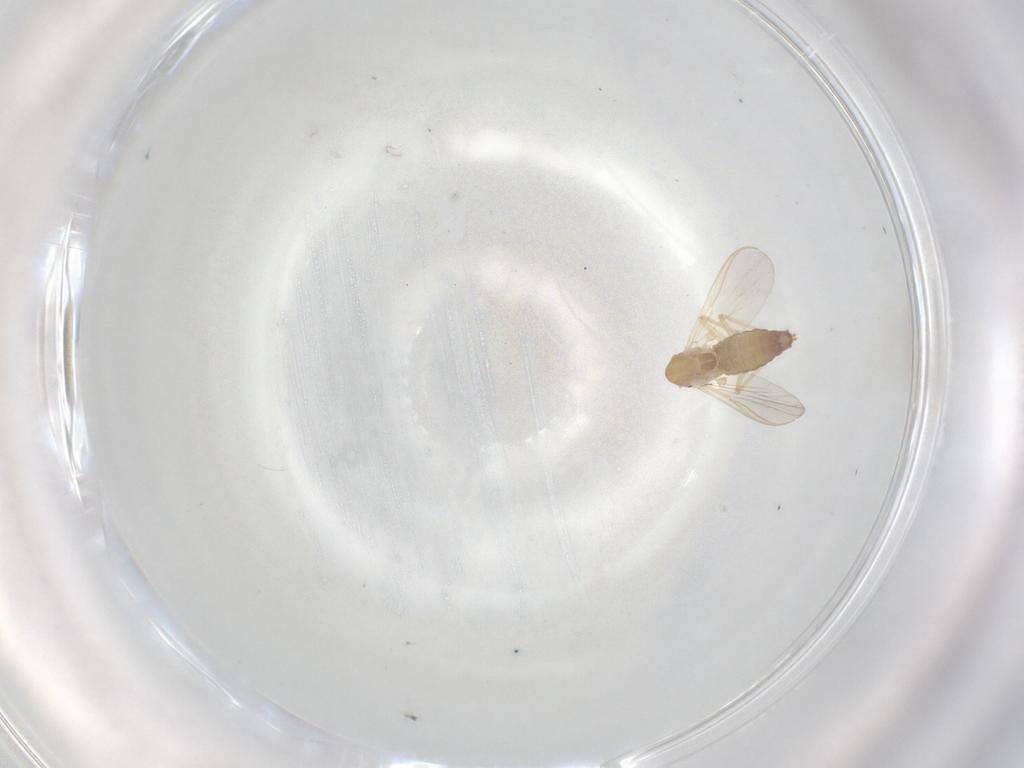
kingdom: Animalia
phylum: Arthropoda
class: Insecta
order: Diptera
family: Chironomidae
